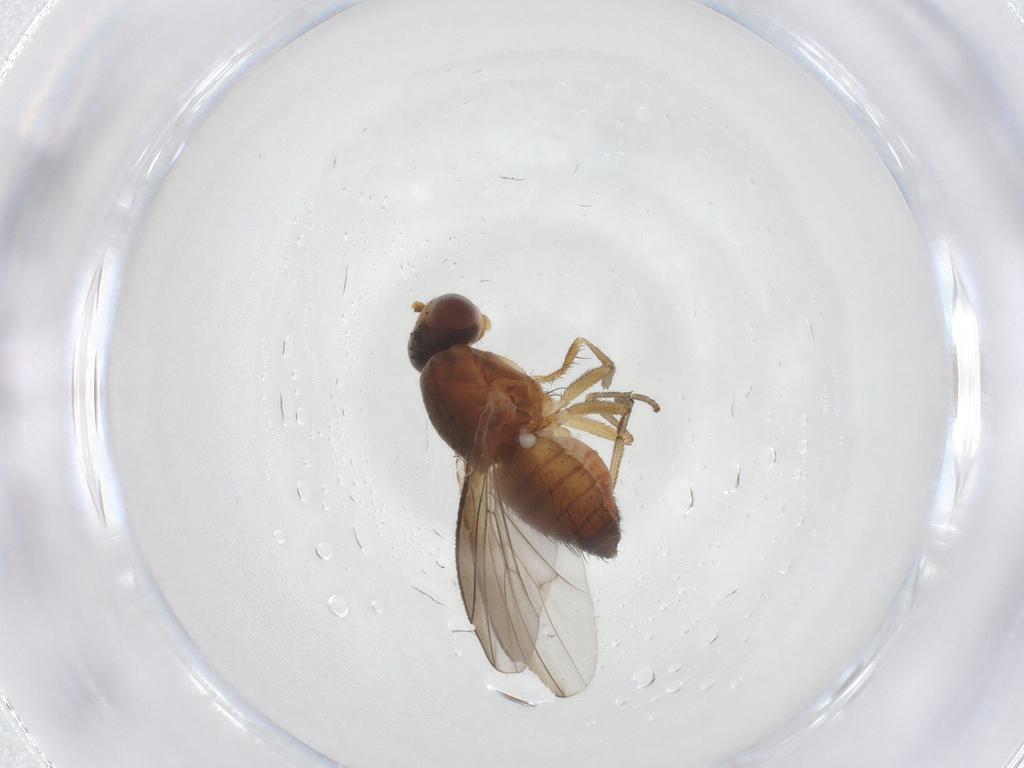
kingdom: Animalia
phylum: Arthropoda
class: Insecta
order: Diptera
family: Heleomyzidae
